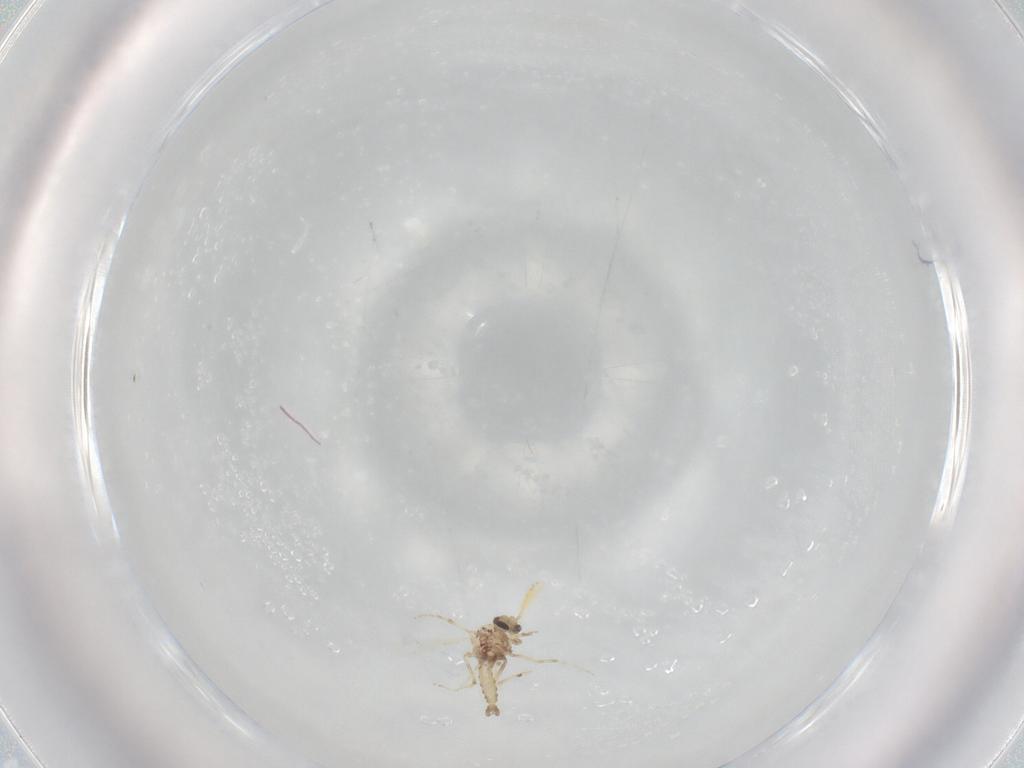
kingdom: Animalia
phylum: Arthropoda
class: Insecta
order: Diptera
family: Ceratopogonidae
